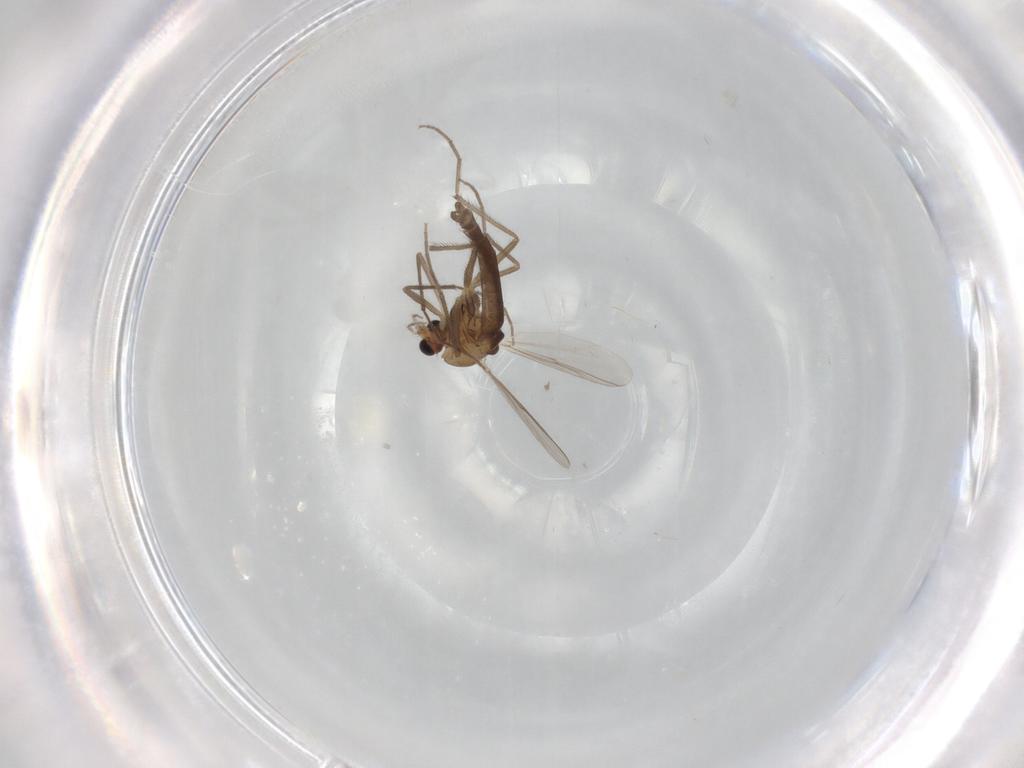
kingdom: Animalia
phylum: Arthropoda
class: Insecta
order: Diptera
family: Chironomidae
